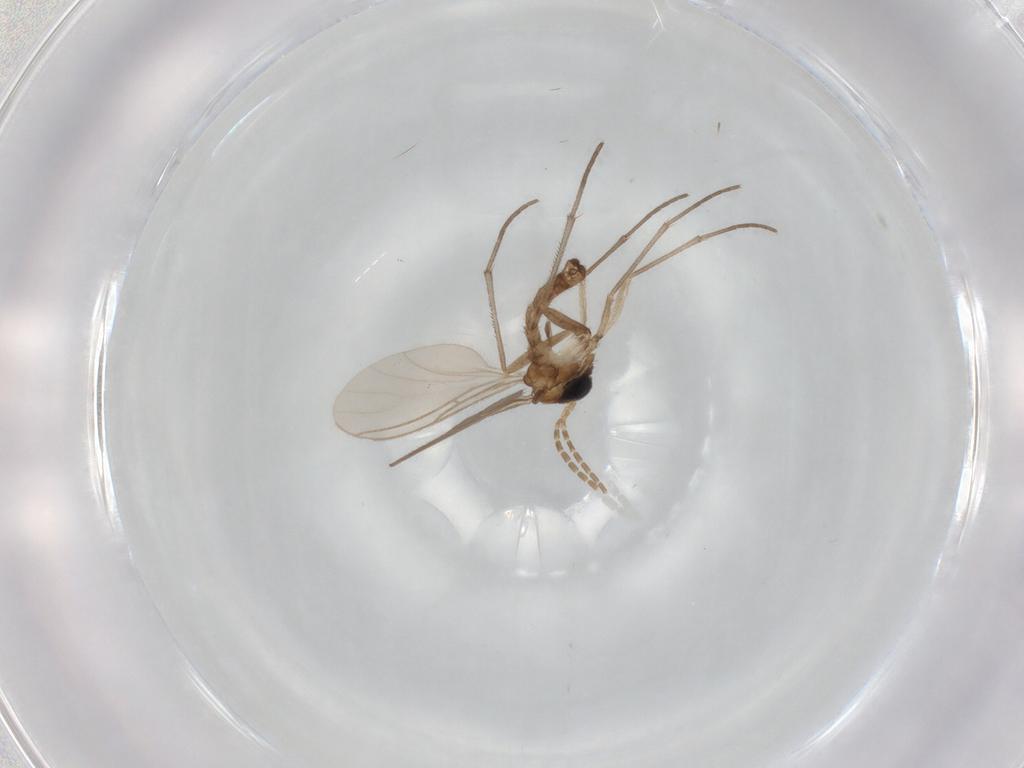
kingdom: Animalia
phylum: Arthropoda
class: Insecta
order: Diptera
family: Sciaridae
